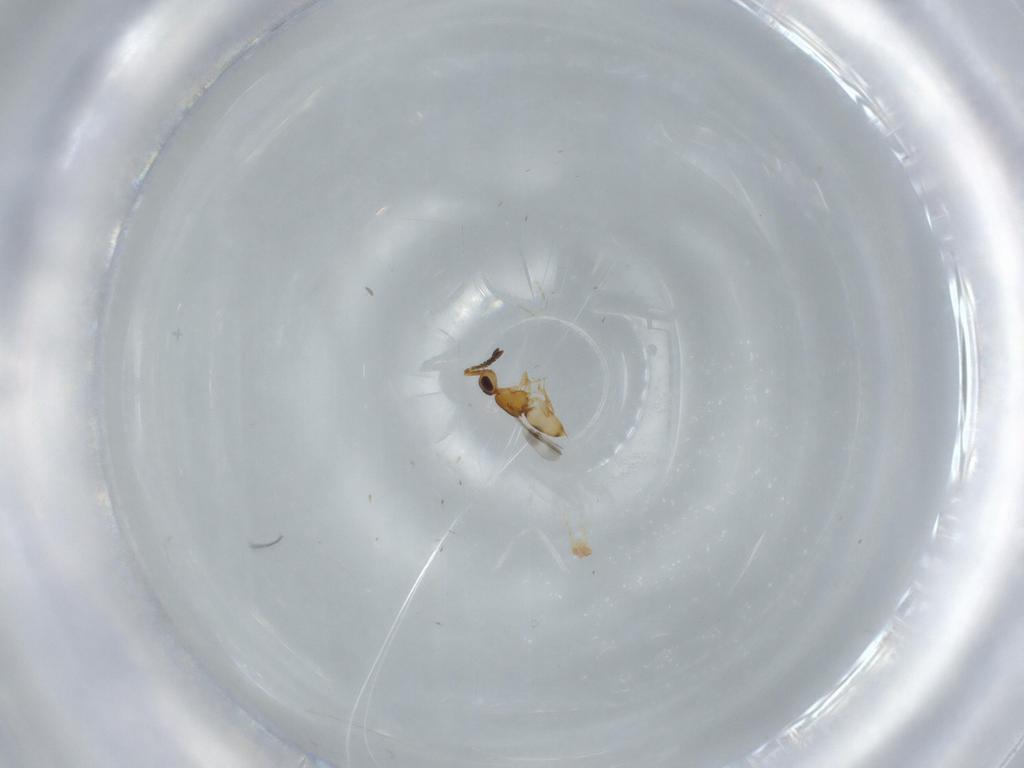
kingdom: Animalia
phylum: Arthropoda
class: Insecta
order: Hymenoptera
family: Ceraphronidae
